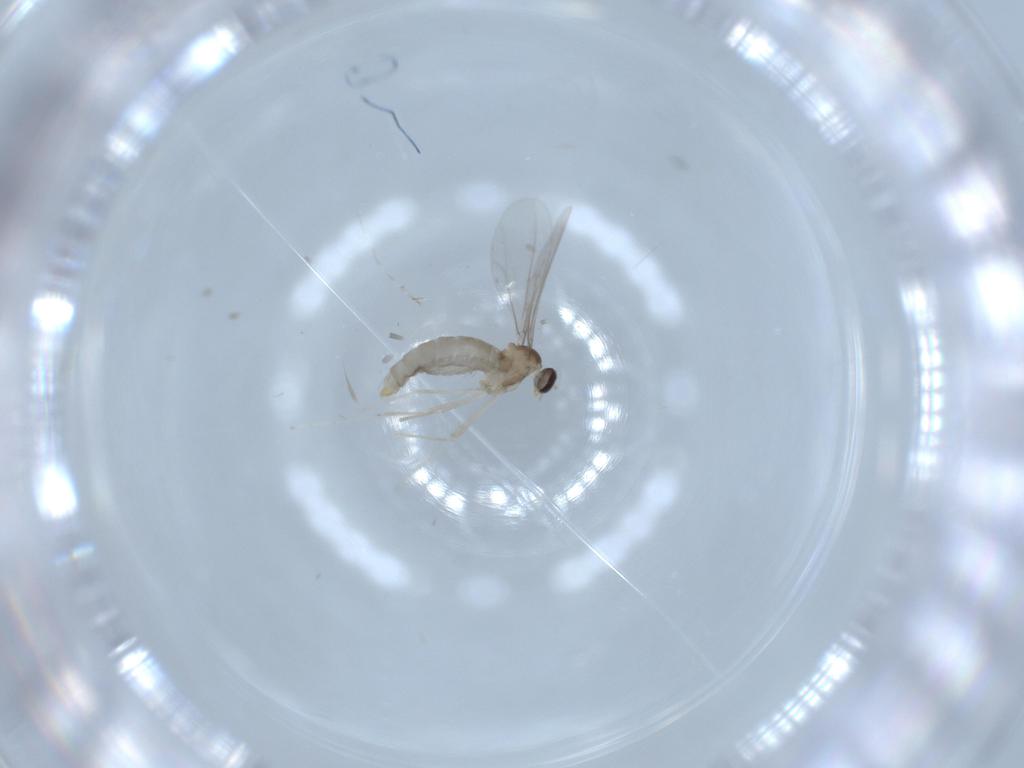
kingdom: Animalia
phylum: Arthropoda
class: Insecta
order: Diptera
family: Cecidomyiidae
